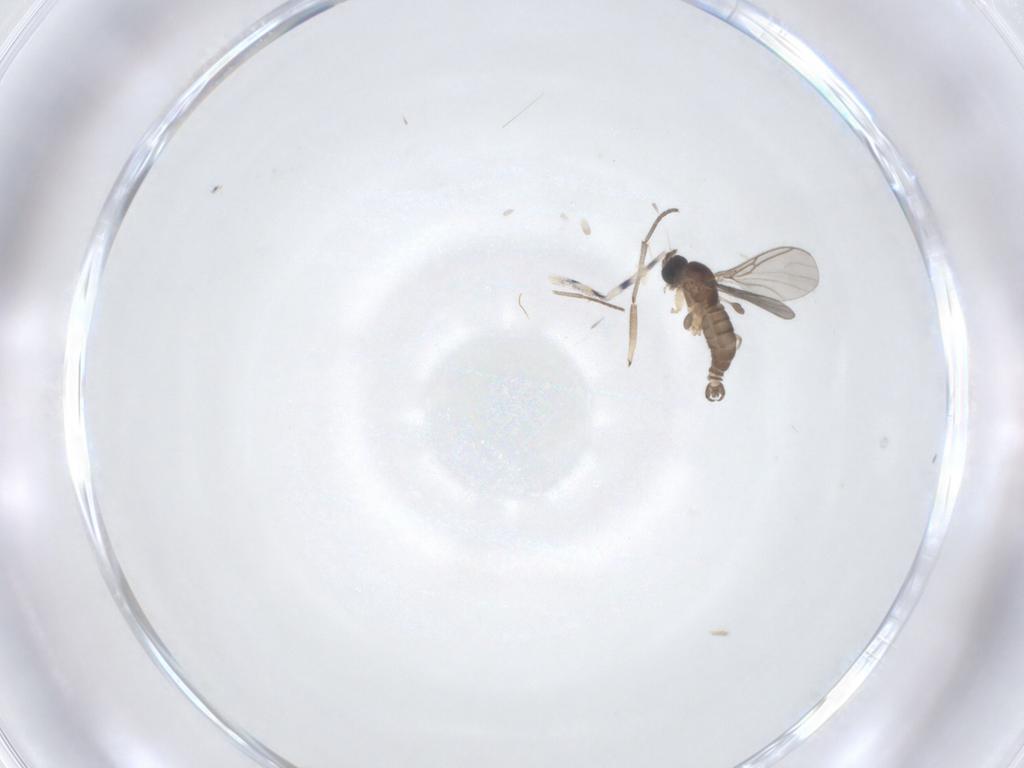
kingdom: Animalia
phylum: Arthropoda
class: Insecta
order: Diptera
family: Sciaridae
